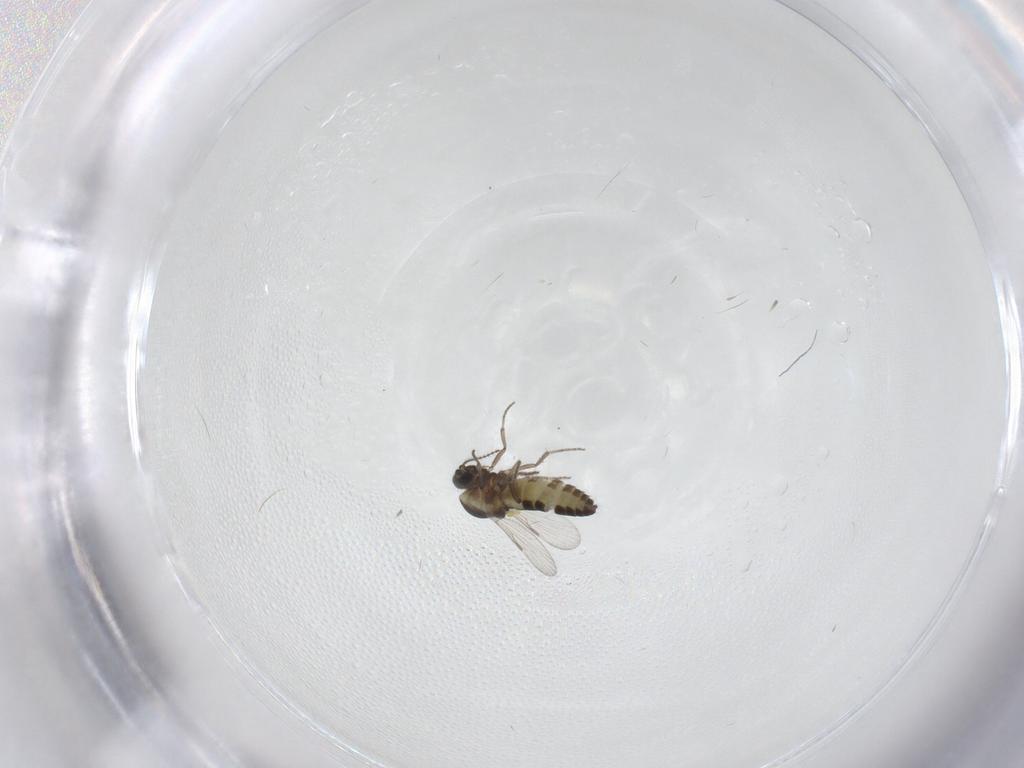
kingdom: Animalia
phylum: Arthropoda
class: Insecta
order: Diptera
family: Ceratopogonidae
